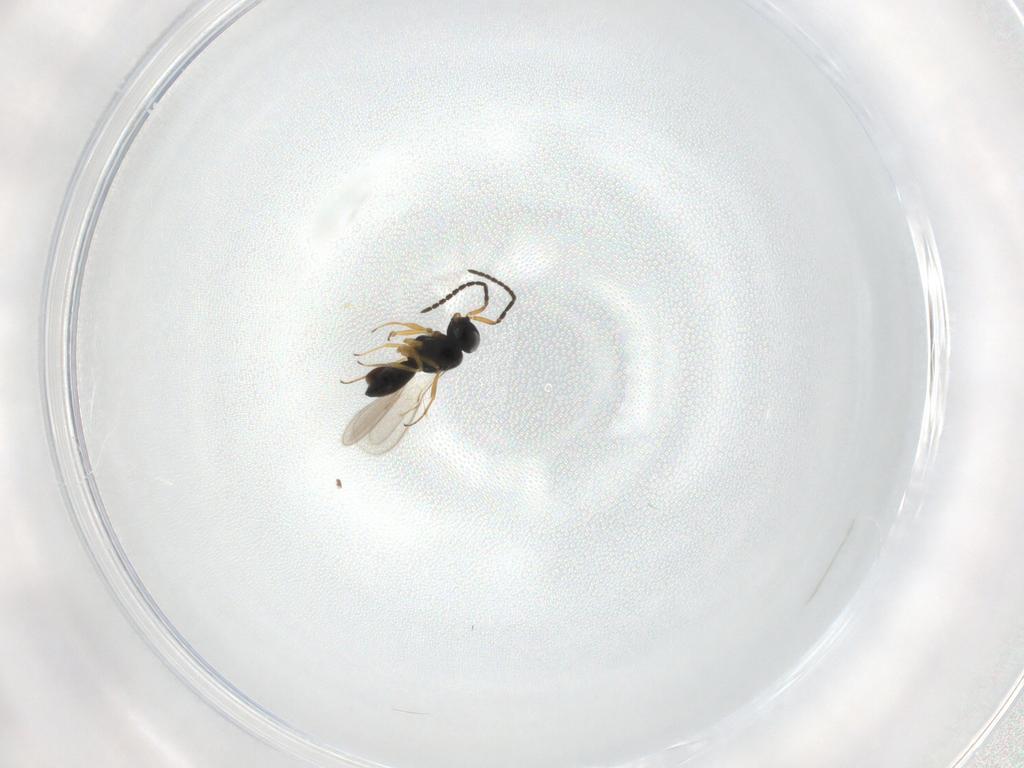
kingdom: Animalia
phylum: Arthropoda
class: Insecta
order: Hymenoptera
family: Scelionidae
